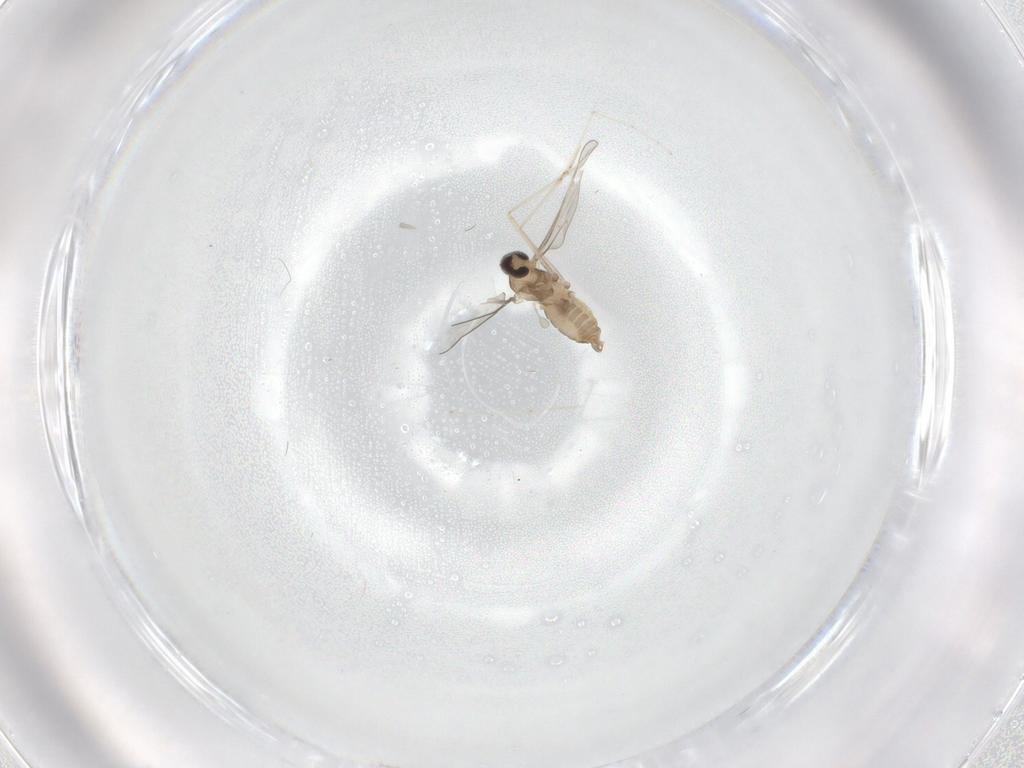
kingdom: Animalia
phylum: Arthropoda
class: Insecta
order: Diptera
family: Cecidomyiidae
